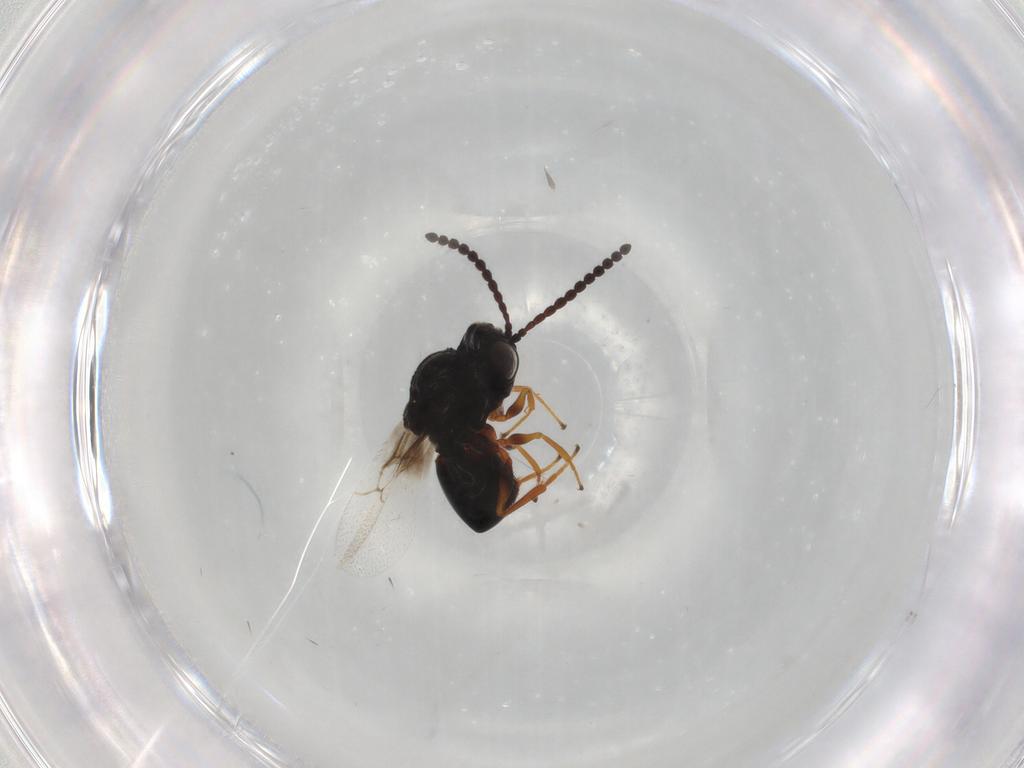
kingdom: Animalia
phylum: Arthropoda
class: Insecta
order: Hymenoptera
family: Figitidae
